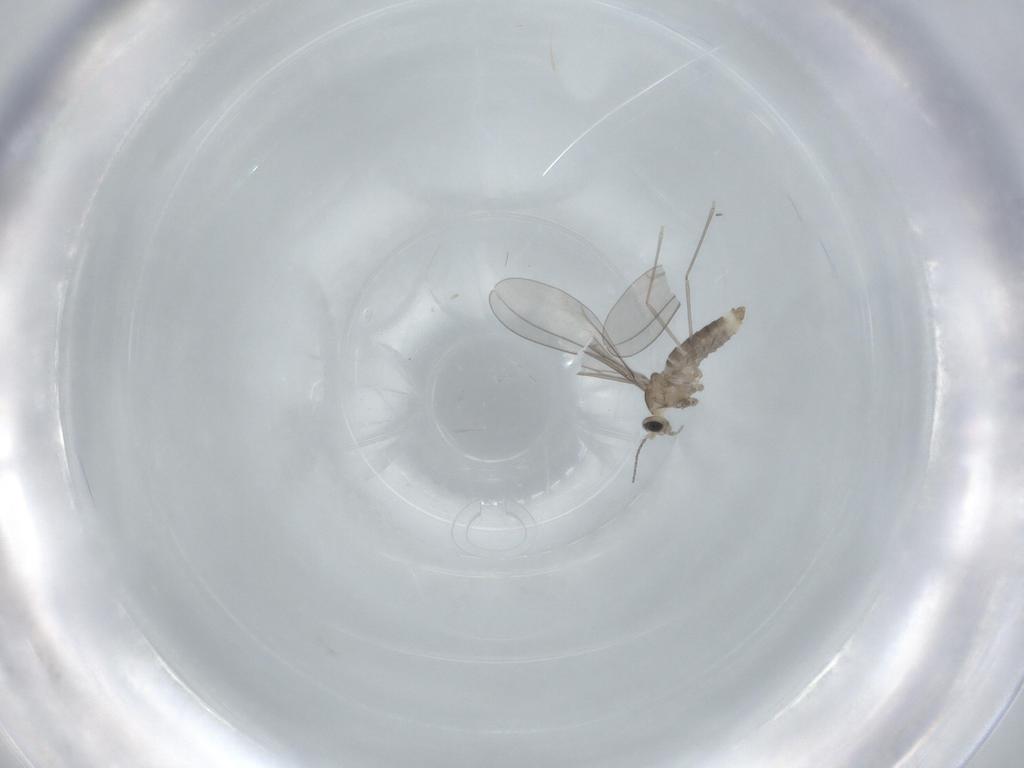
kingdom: Animalia
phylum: Arthropoda
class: Insecta
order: Diptera
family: Cecidomyiidae
